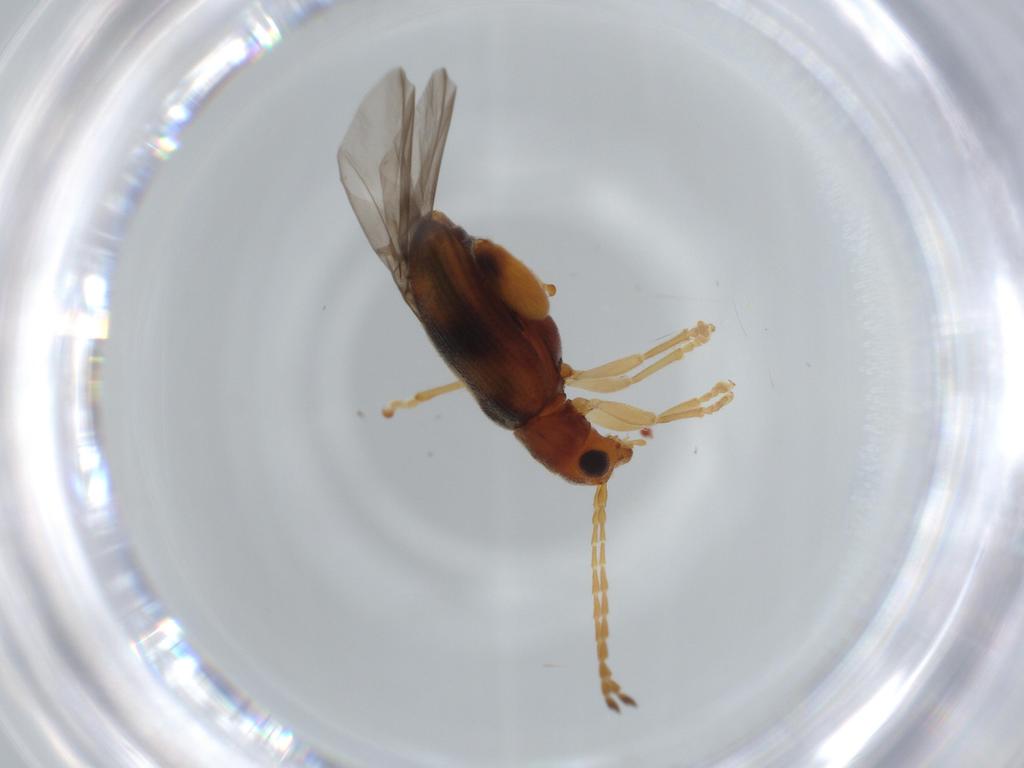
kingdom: Animalia
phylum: Arthropoda
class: Insecta
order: Coleoptera
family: Chrysomelidae
